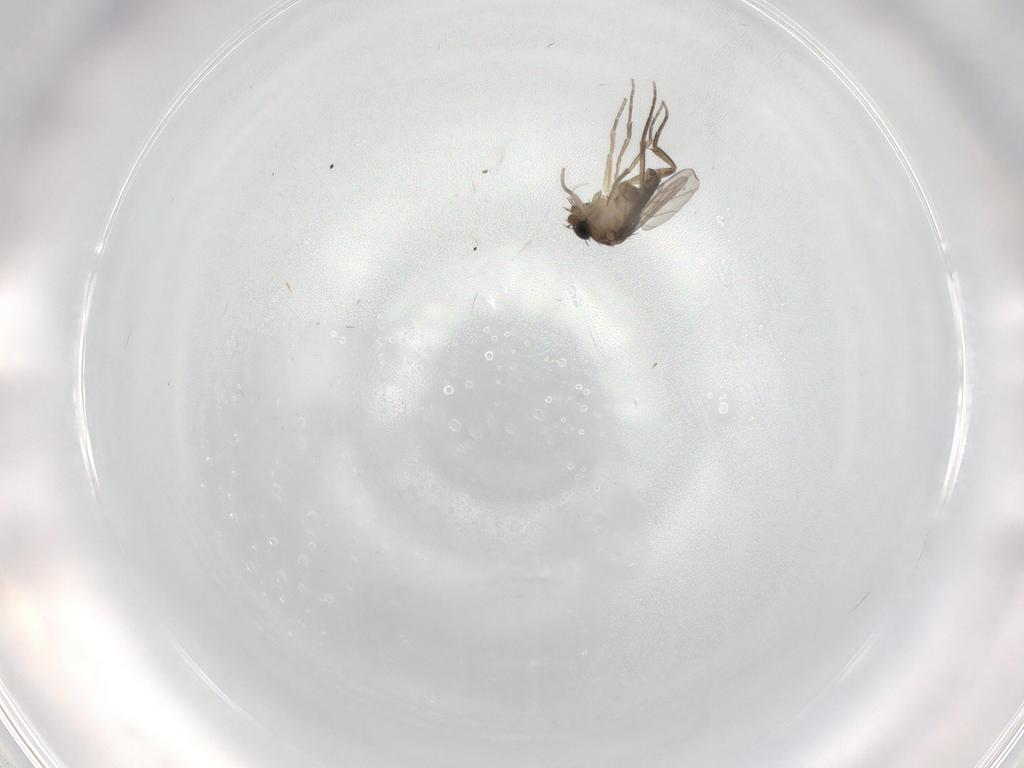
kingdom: Animalia
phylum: Arthropoda
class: Insecta
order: Diptera
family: Phoridae
